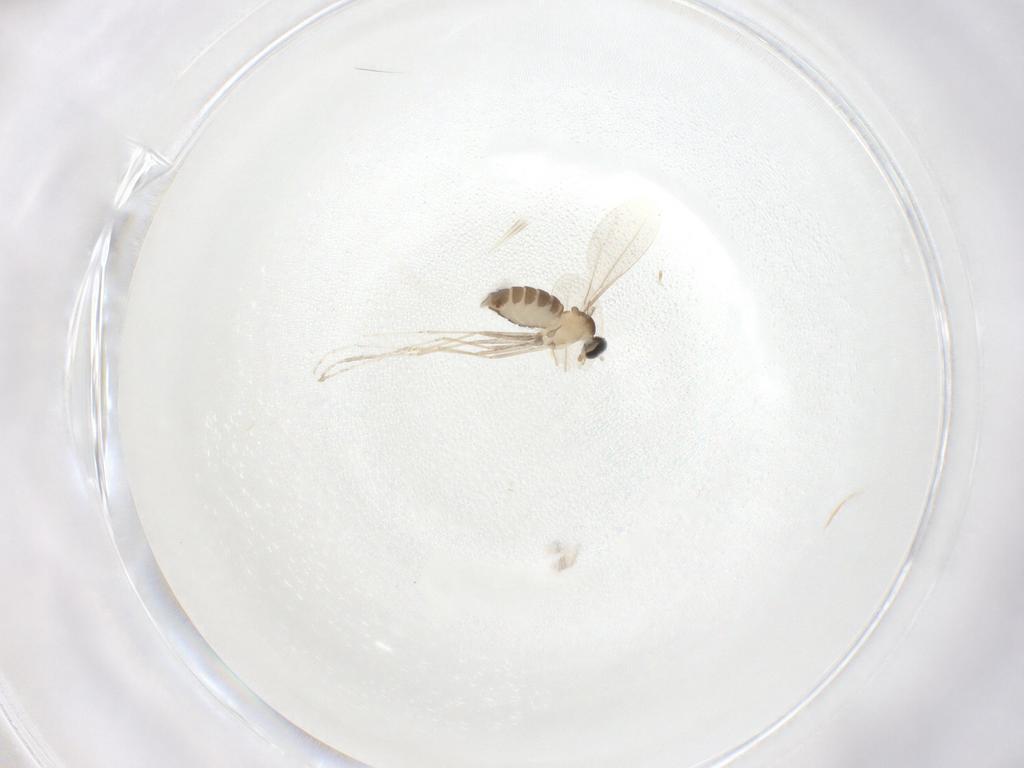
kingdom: Animalia
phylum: Arthropoda
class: Insecta
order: Diptera
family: Cecidomyiidae
